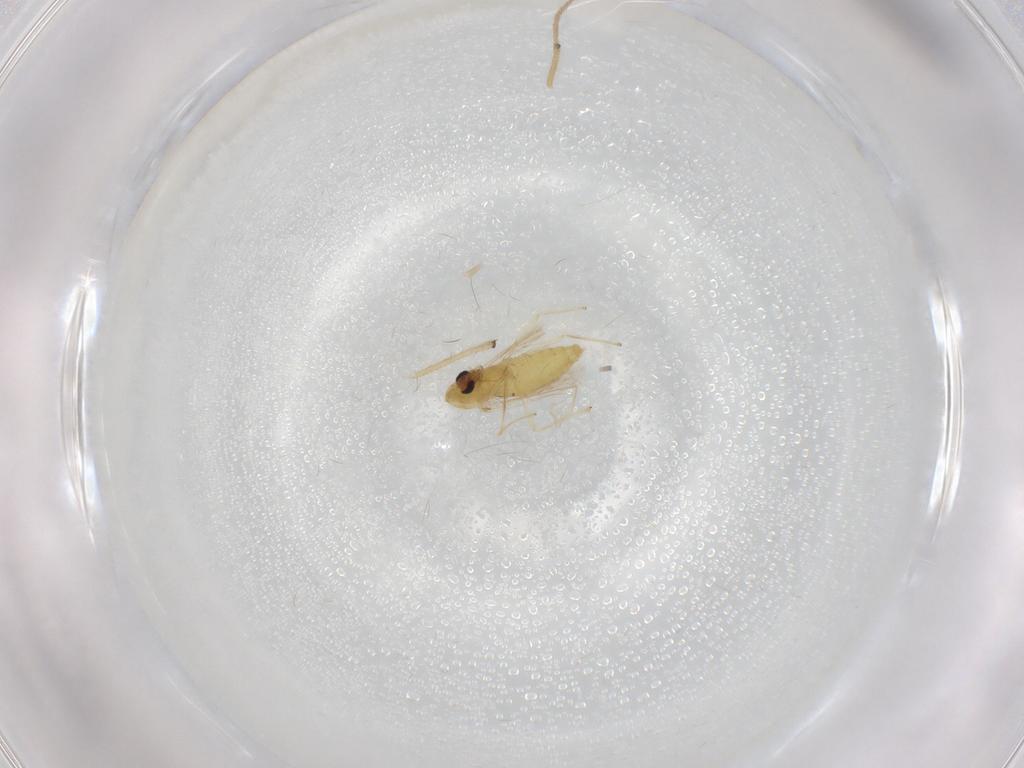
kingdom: Animalia
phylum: Arthropoda
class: Insecta
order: Diptera
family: Chironomidae
